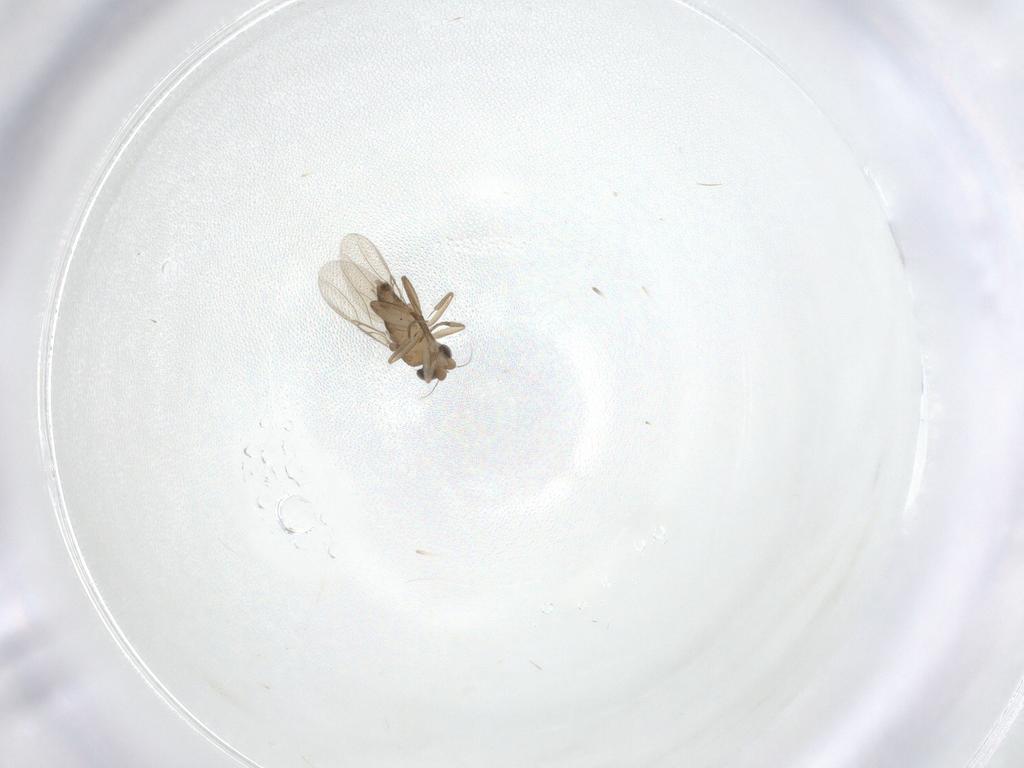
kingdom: Animalia
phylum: Arthropoda
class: Insecta
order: Diptera
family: Phoridae
